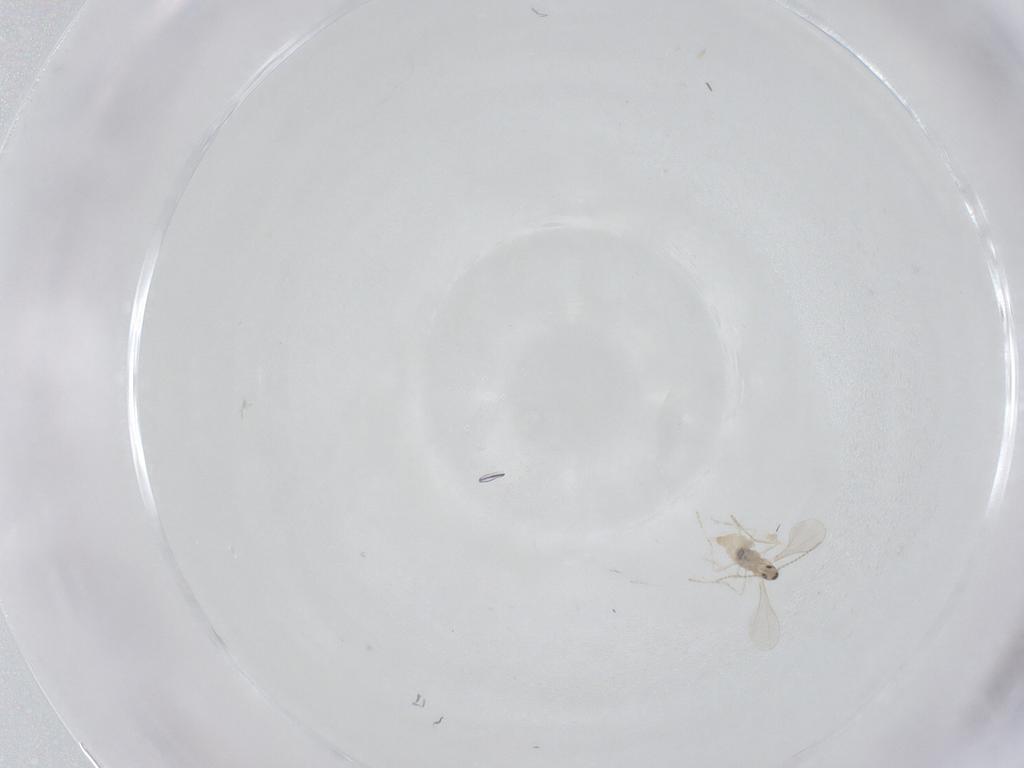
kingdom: Animalia
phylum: Arthropoda
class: Insecta
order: Diptera
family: Cecidomyiidae
